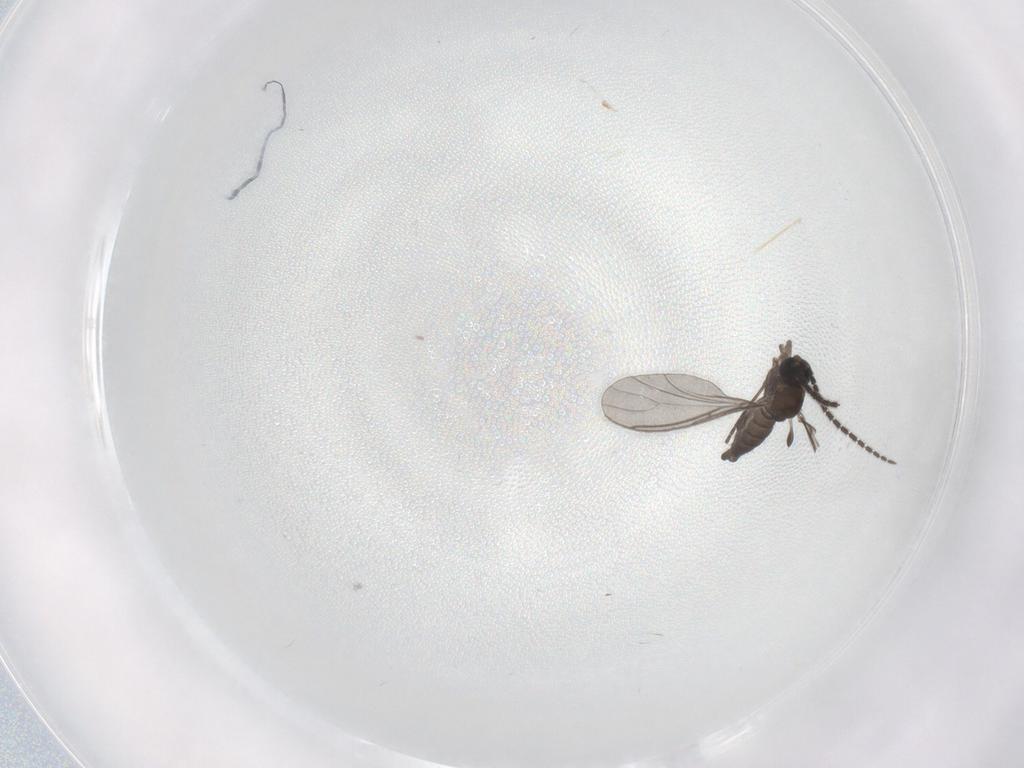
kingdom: Animalia
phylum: Arthropoda
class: Insecta
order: Diptera
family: Sciaridae
